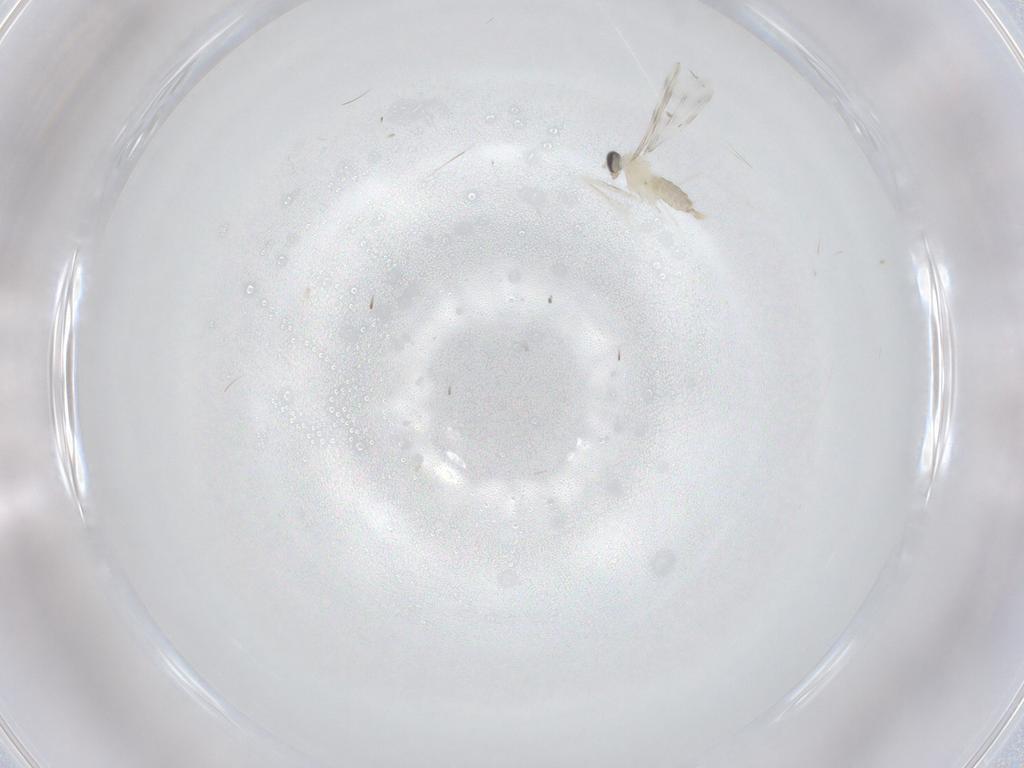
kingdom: Animalia
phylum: Arthropoda
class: Insecta
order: Diptera
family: Cecidomyiidae
